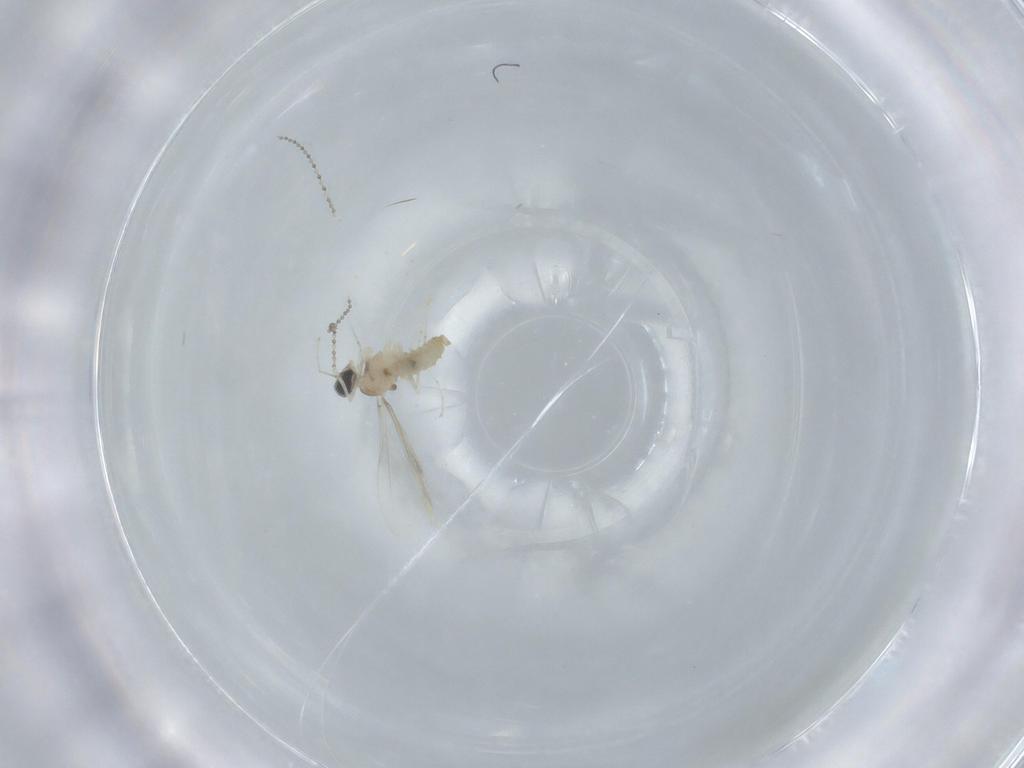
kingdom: Animalia
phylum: Arthropoda
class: Insecta
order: Diptera
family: Cecidomyiidae
